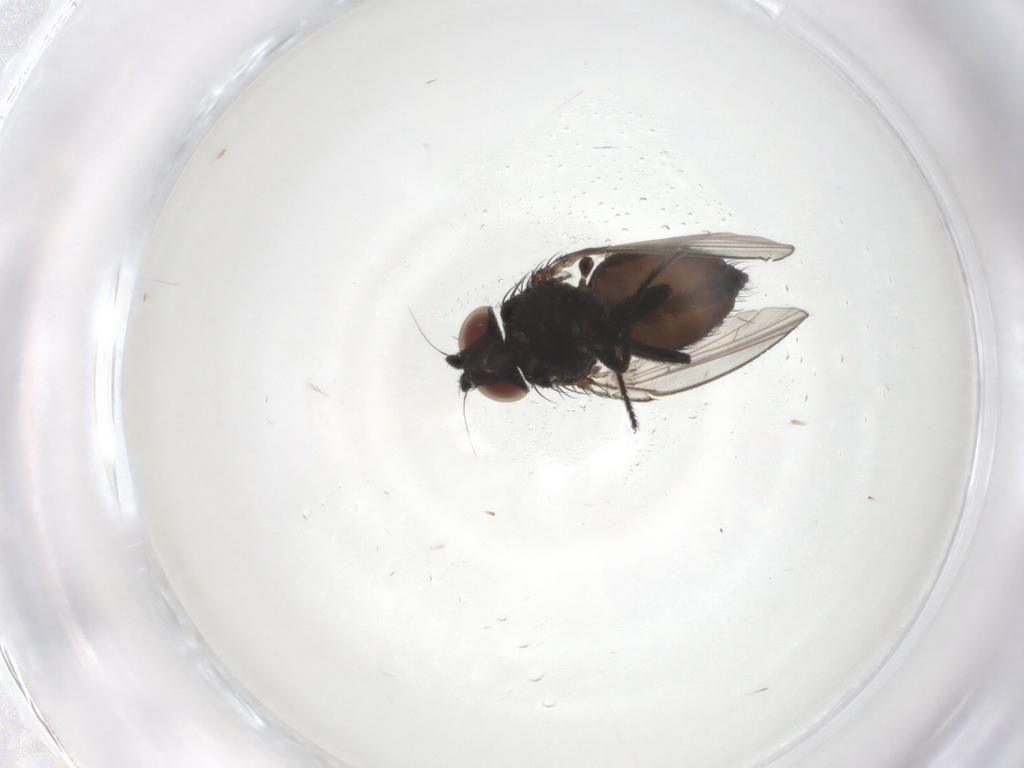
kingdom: Animalia
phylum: Arthropoda
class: Insecta
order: Diptera
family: Milichiidae
